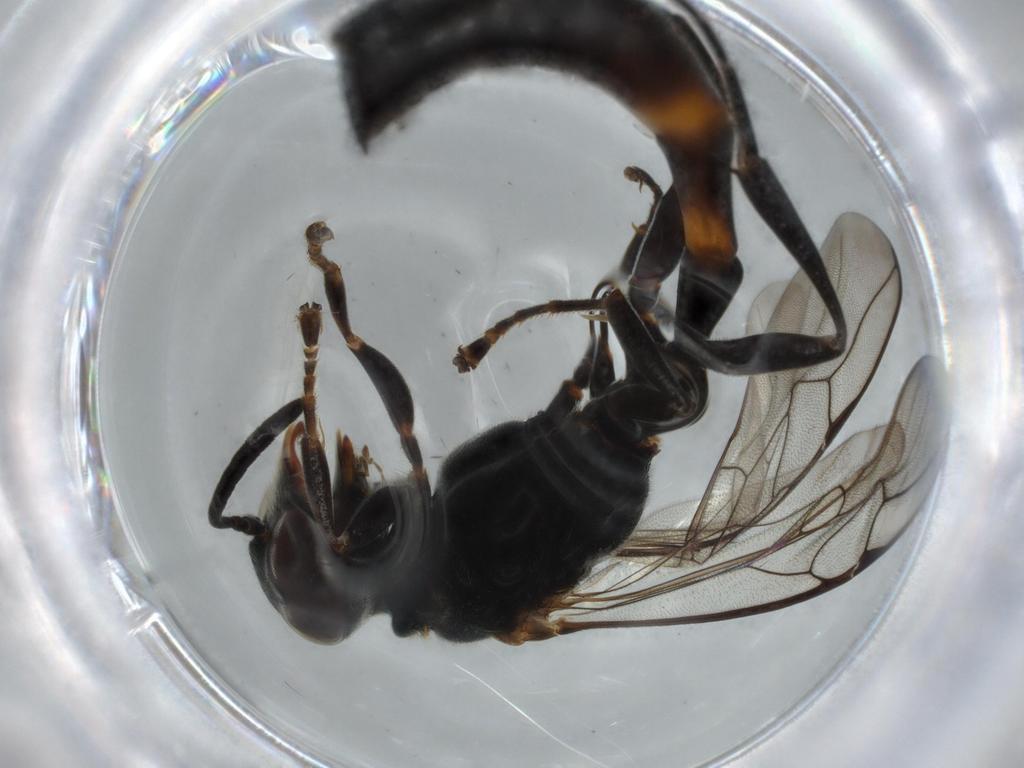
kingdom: Animalia
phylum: Arthropoda
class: Insecta
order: Hymenoptera
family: Crabronidae
